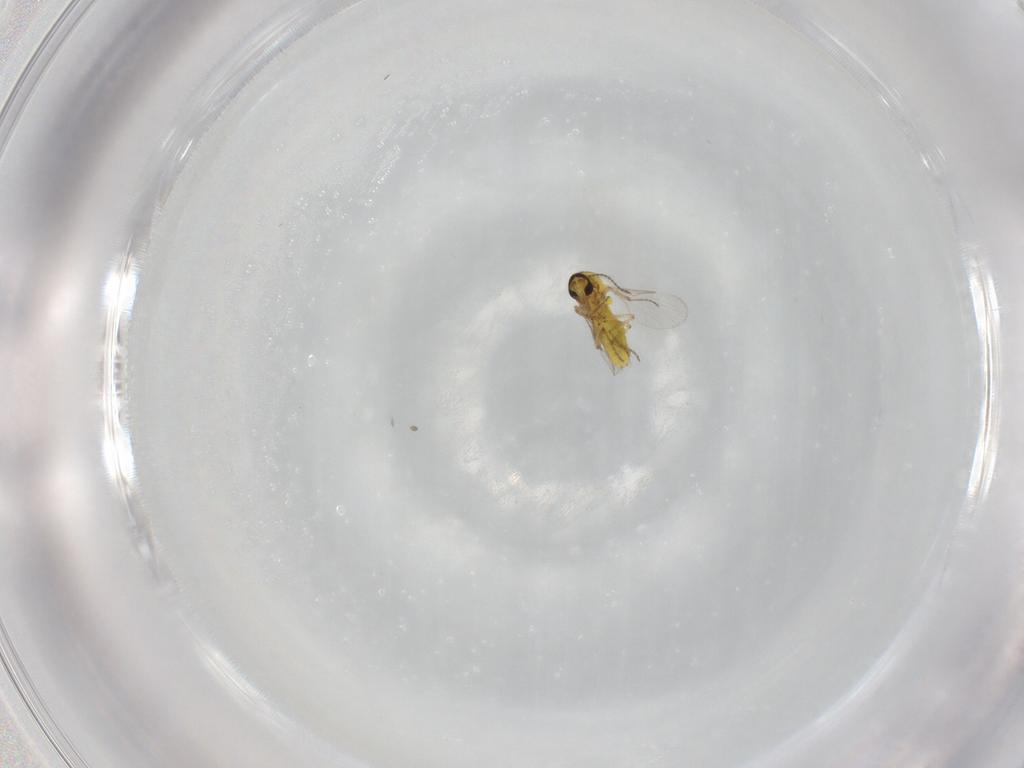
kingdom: Animalia
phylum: Arthropoda
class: Insecta
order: Diptera
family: Ceratopogonidae
